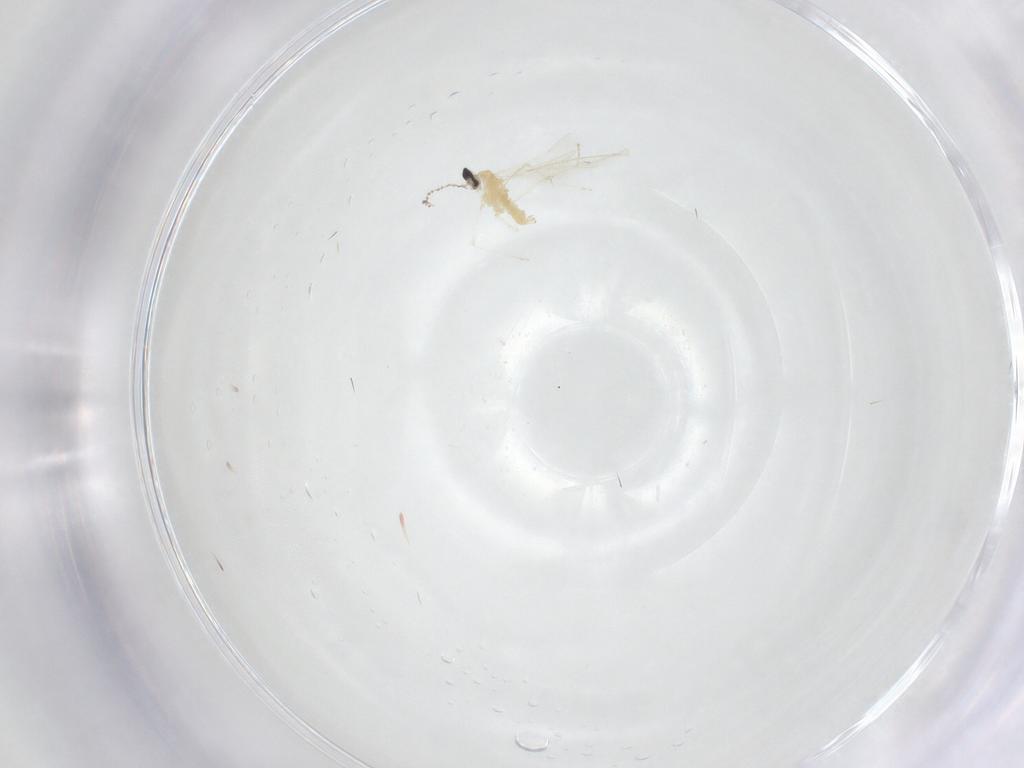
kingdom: Animalia
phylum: Arthropoda
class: Insecta
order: Diptera
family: Cecidomyiidae
